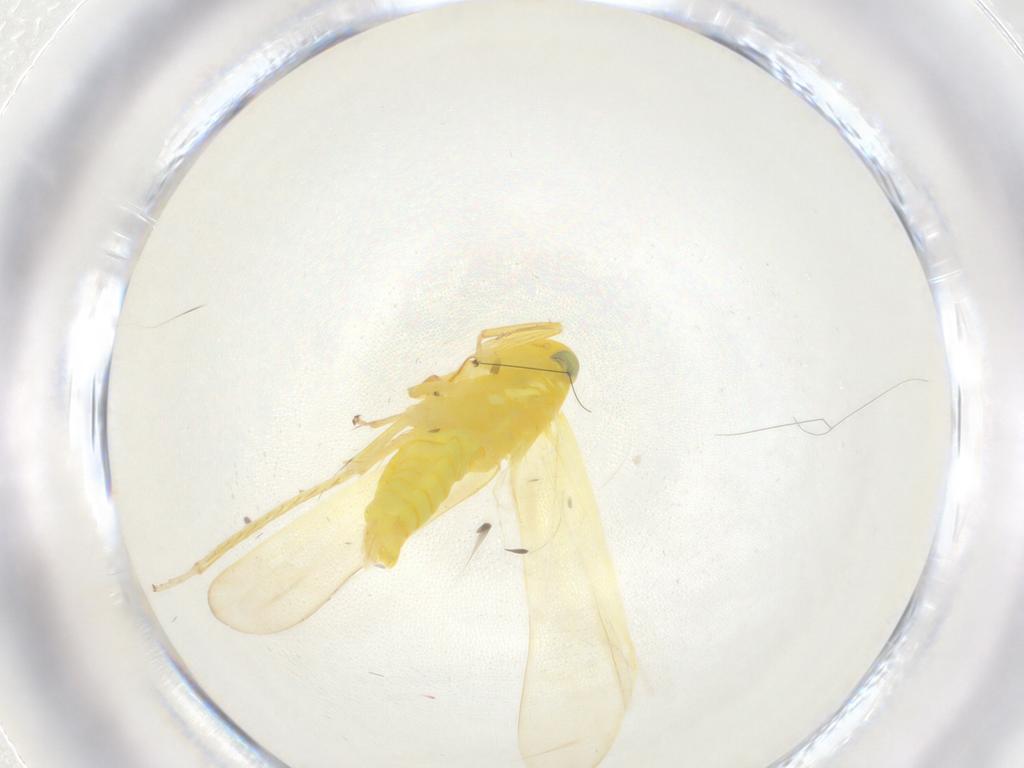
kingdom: Animalia
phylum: Arthropoda
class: Insecta
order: Hemiptera
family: Cicadellidae
